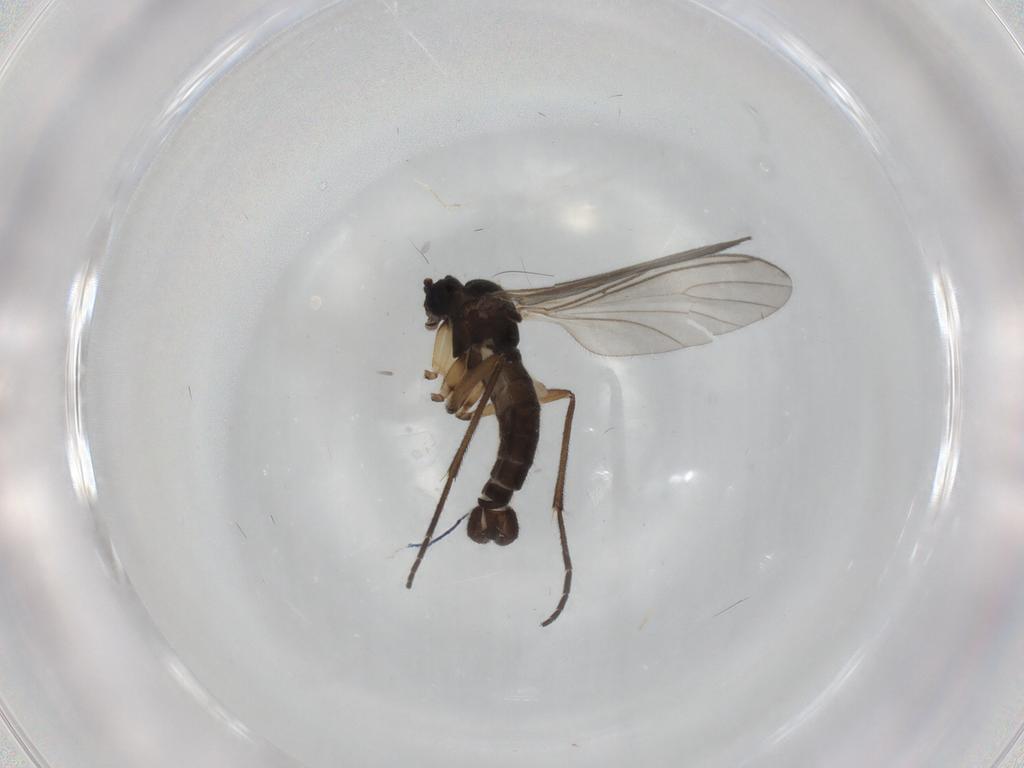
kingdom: Animalia
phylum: Arthropoda
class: Insecta
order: Diptera
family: Sciaridae
